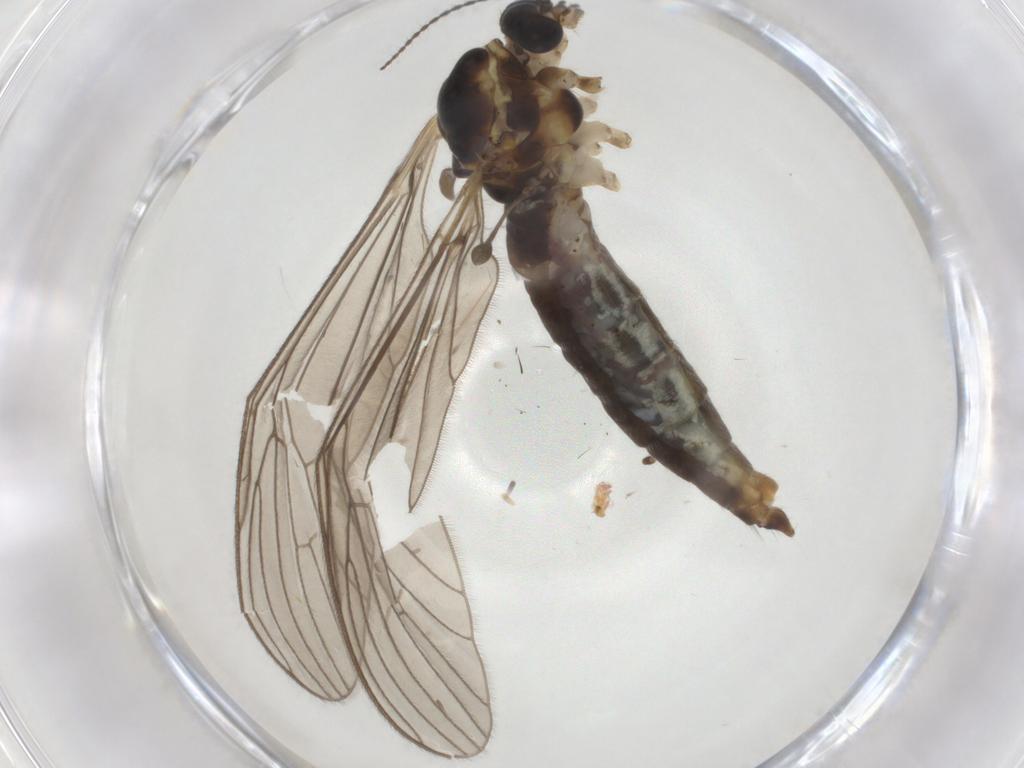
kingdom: Animalia
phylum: Arthropoda
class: Insecta
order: Diptera
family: Limoniidae
